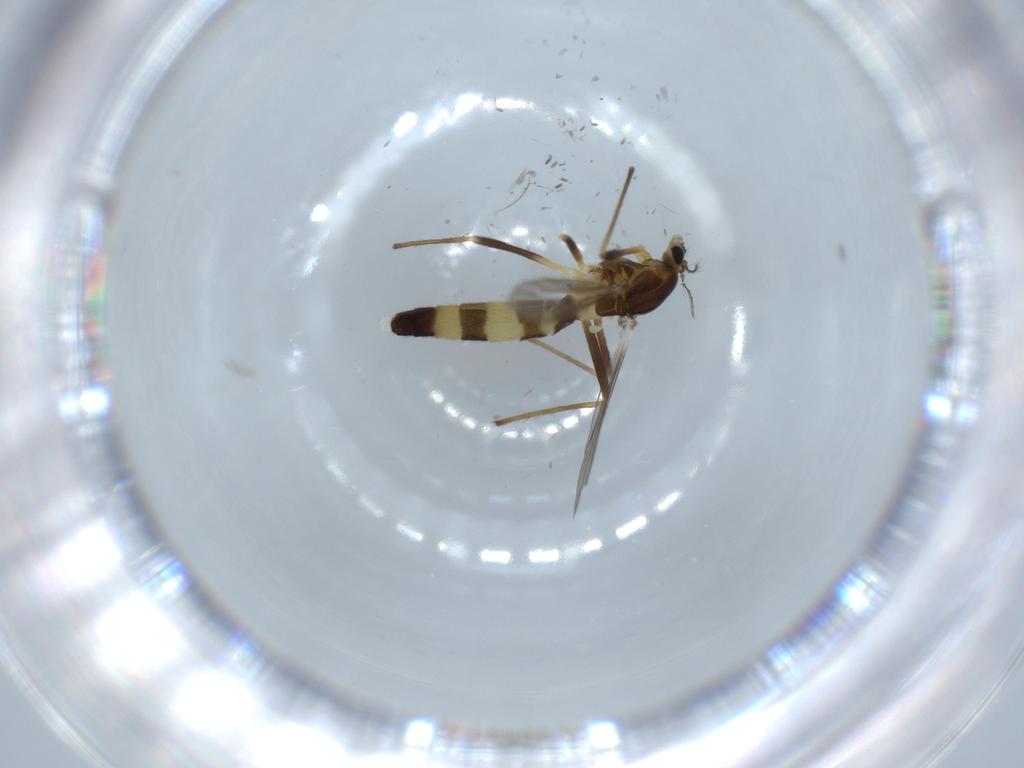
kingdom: Animalia
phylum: Arthropoda
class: Insecta
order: Diptera
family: Chironomidae
